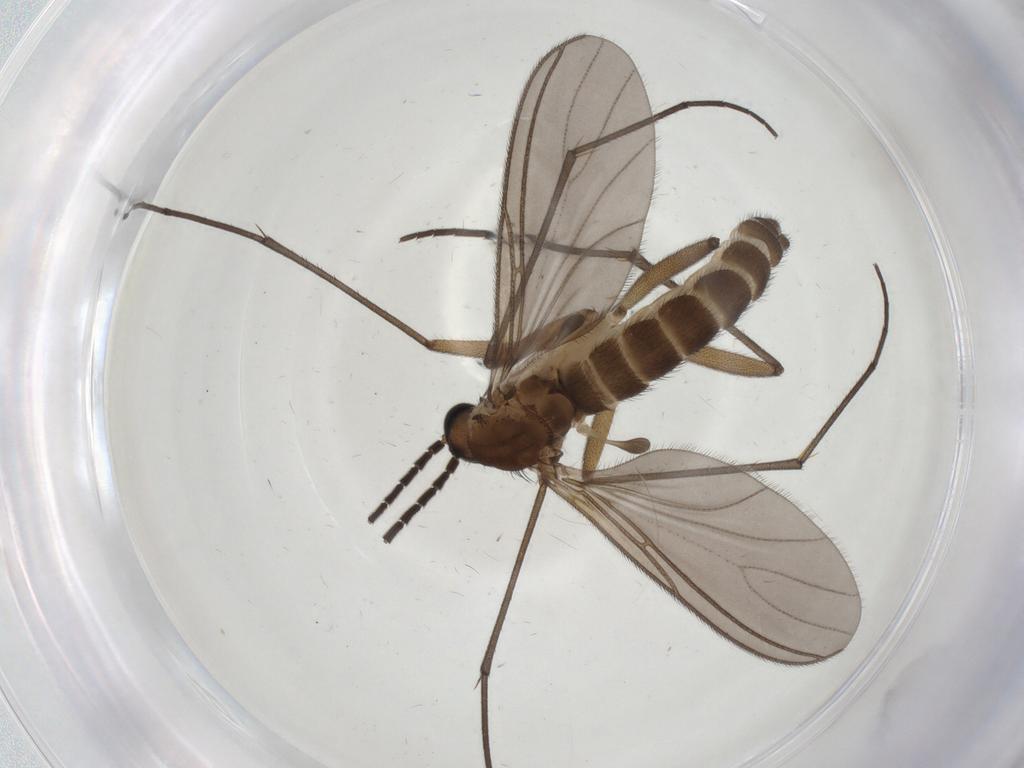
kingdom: Animalia
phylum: Arthropoda
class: Insecta
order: Diptera
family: Sciaridae
